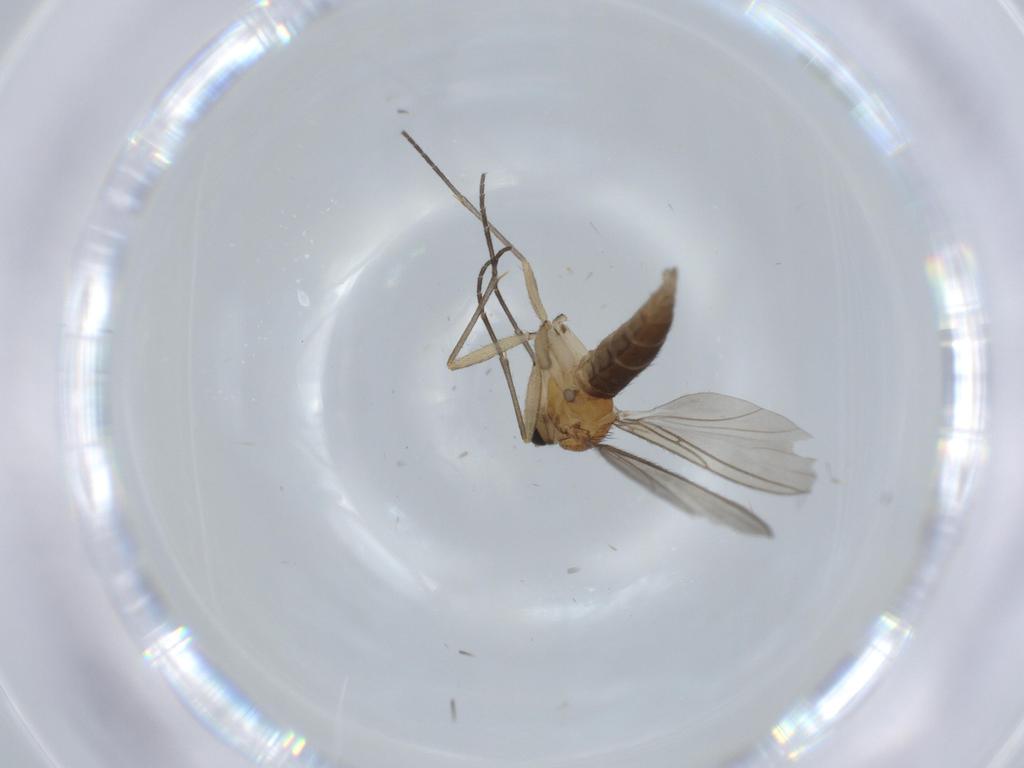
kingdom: Animalia
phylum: Arthropoda
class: Insecta
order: Diptera
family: Sciaridae
